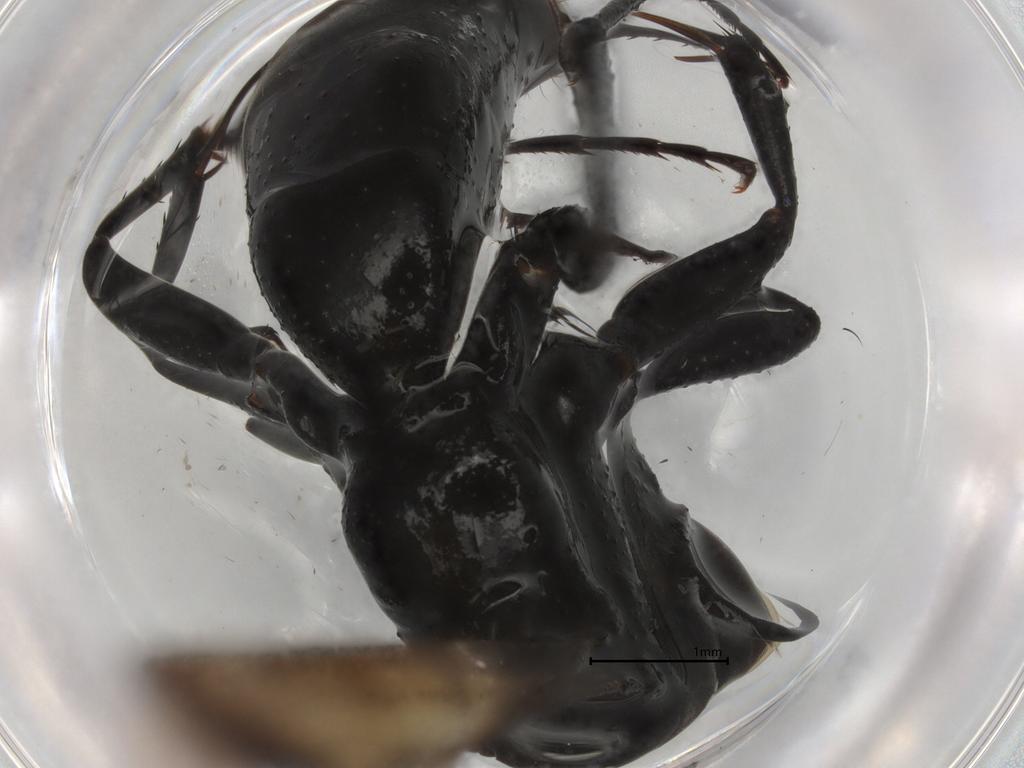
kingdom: Animalia
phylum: Arthropoda
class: Insecta
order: Hymenoptera
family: Pompilidae
